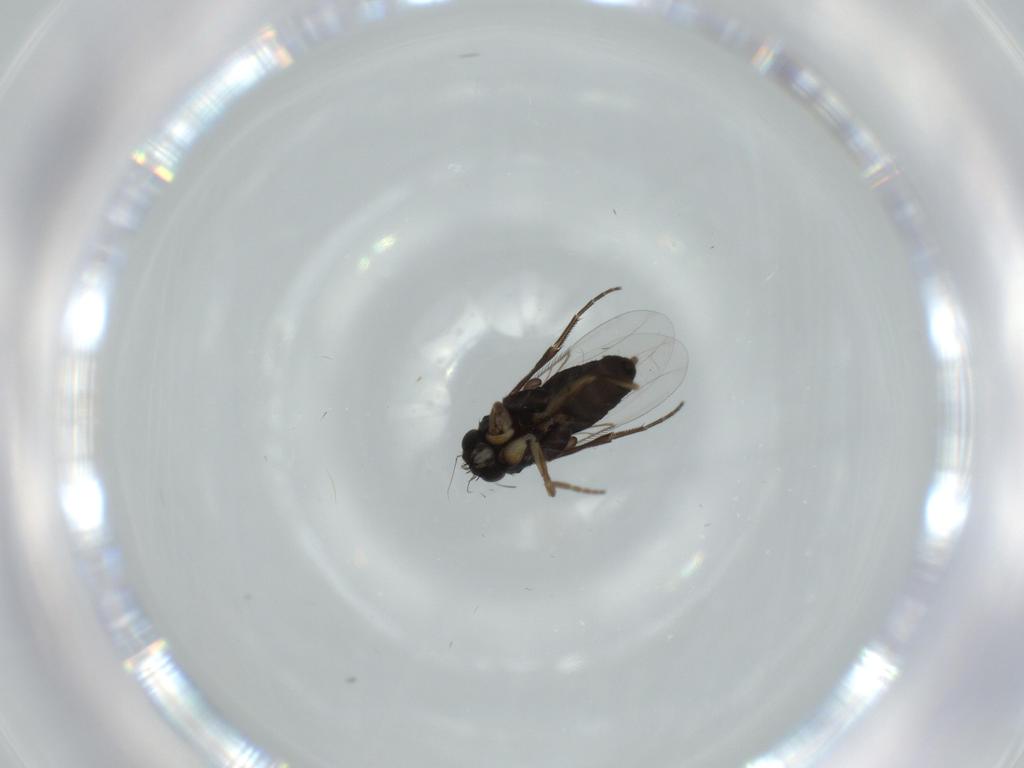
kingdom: Animalia
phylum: Arthropoda
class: Insecta
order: Diptera
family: Phoridae
